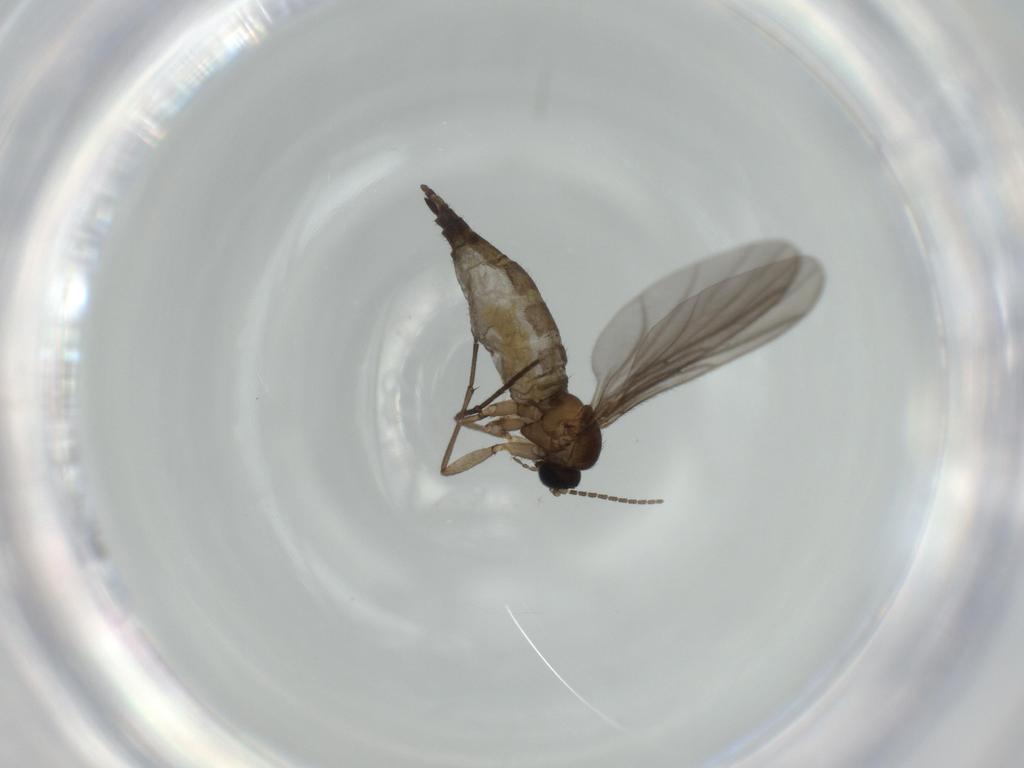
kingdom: Animalia
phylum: Arthropoda
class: Insecta
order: Diptera
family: Sciaridae
